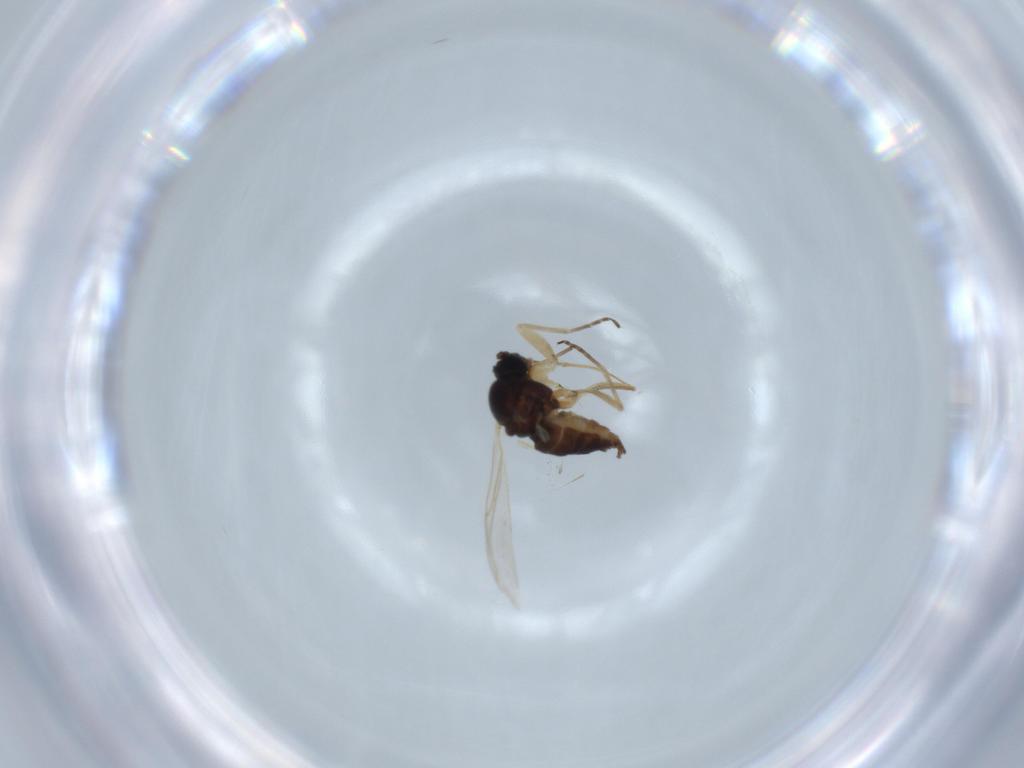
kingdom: Animalia
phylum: Arthropoda
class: Insecta
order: Diptera
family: Sciaridae
